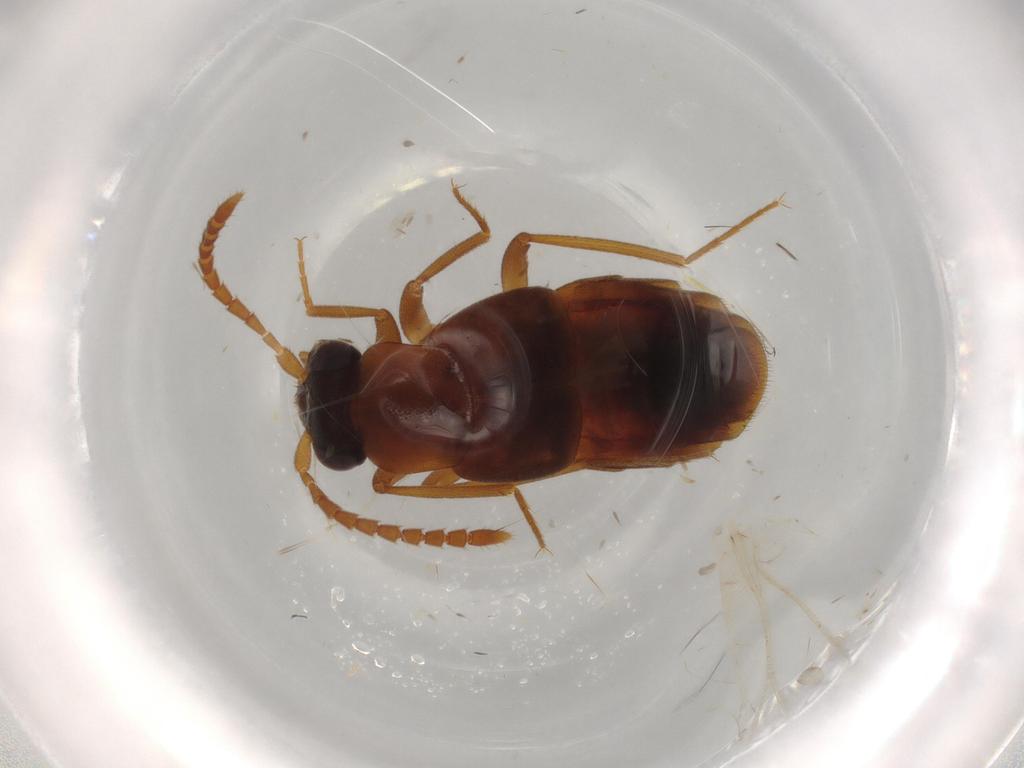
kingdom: Animalia
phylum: Arthropoda
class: Insecta
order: Coleoptera
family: Staphylinidae
